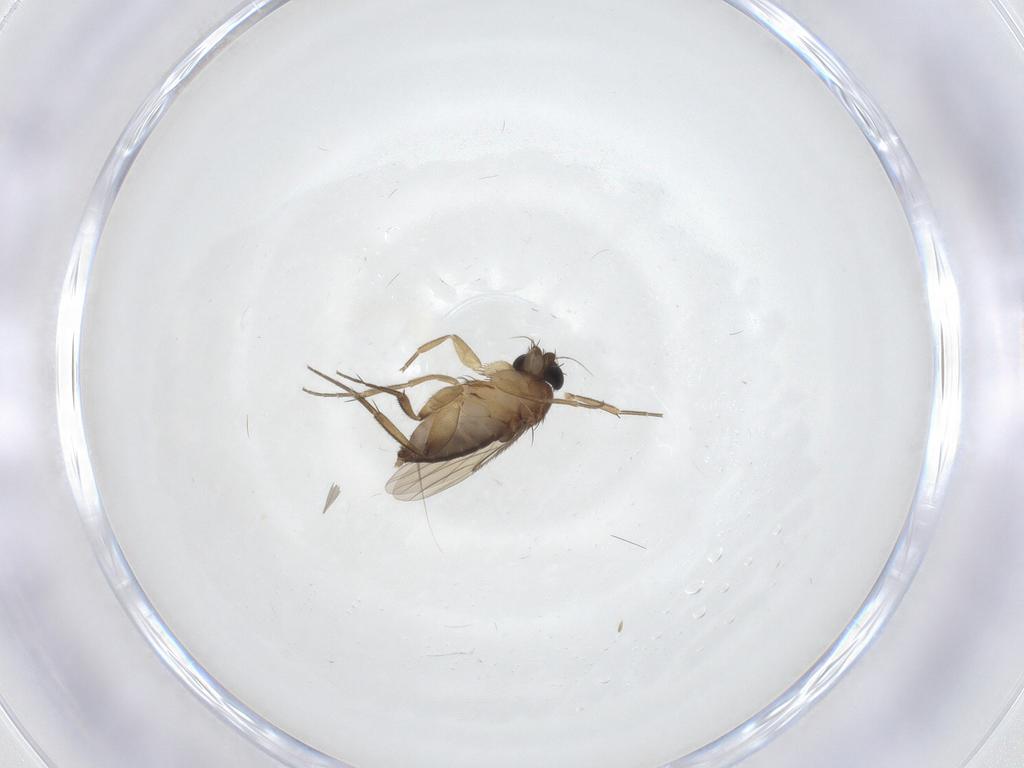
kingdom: Animalia
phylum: Arthropoda
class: Insecta
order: Diptera
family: Phoridae
